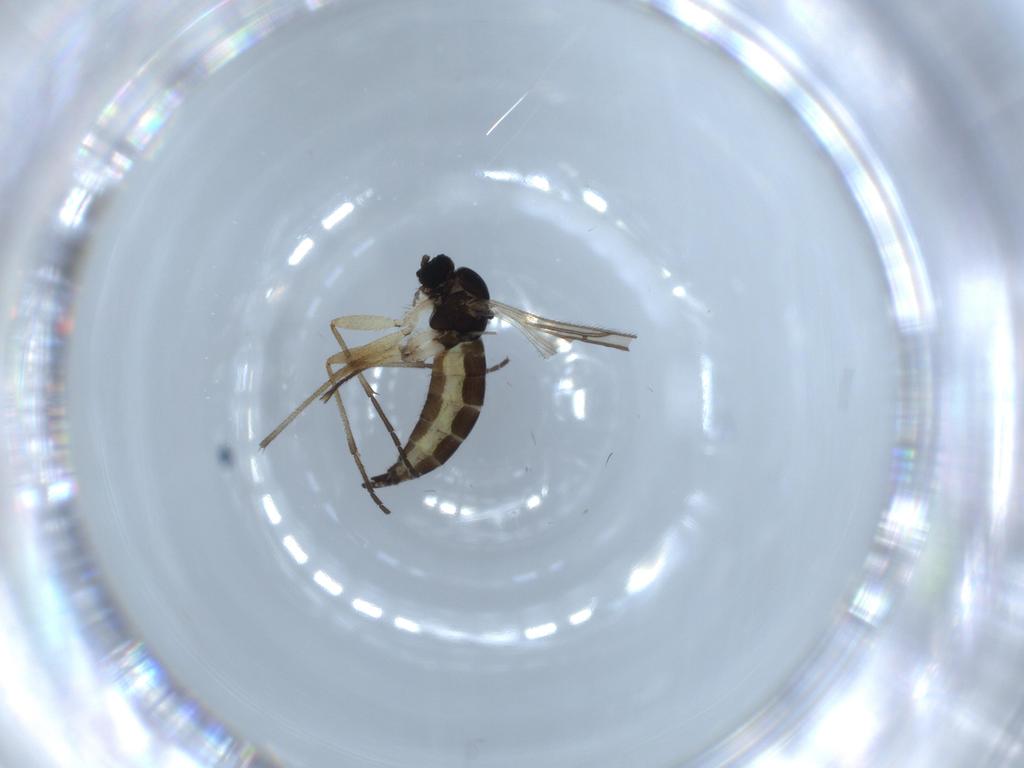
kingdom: Animalia
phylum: Arthropoda
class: Insecta
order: Diptera
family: Sciaridae
